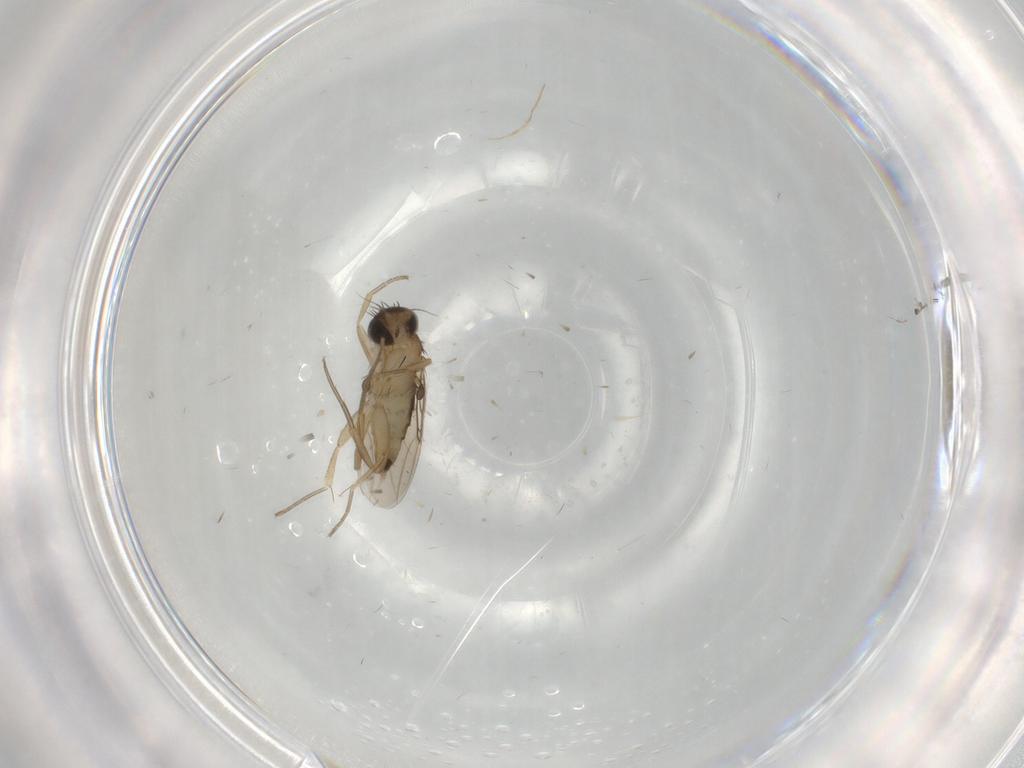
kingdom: Animalia
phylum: Arthropoda
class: Insecta
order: Diptera
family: Phoridae
